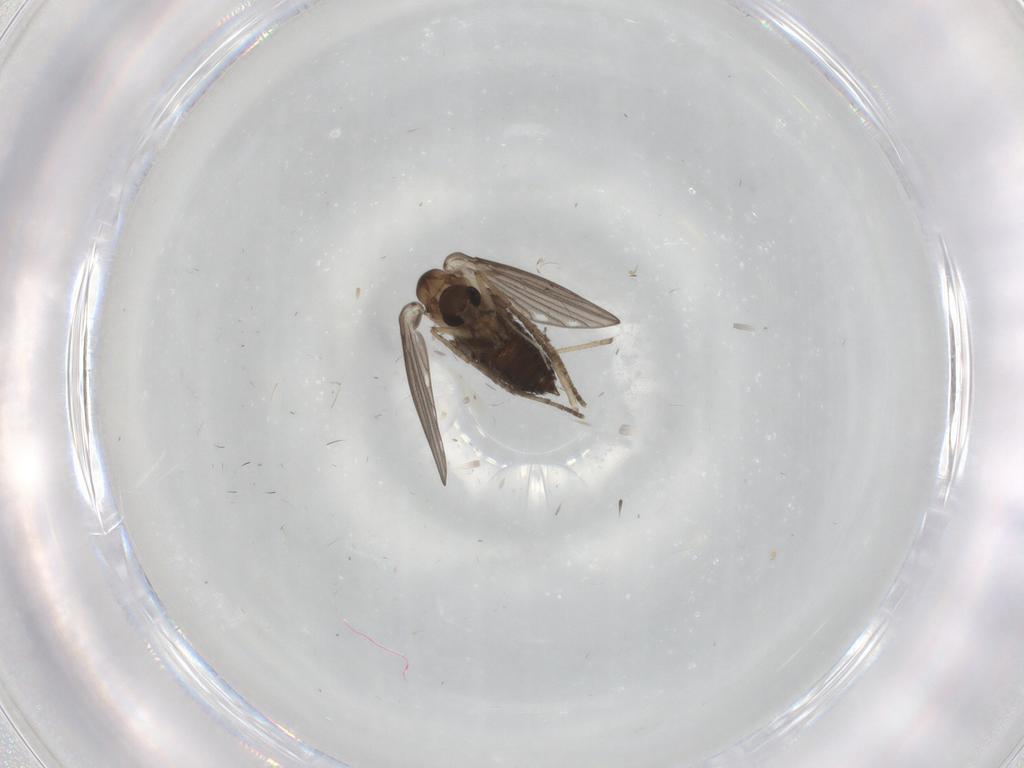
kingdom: Animalia
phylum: Arthropoda
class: Insecta
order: Diptera
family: Psychodidae
